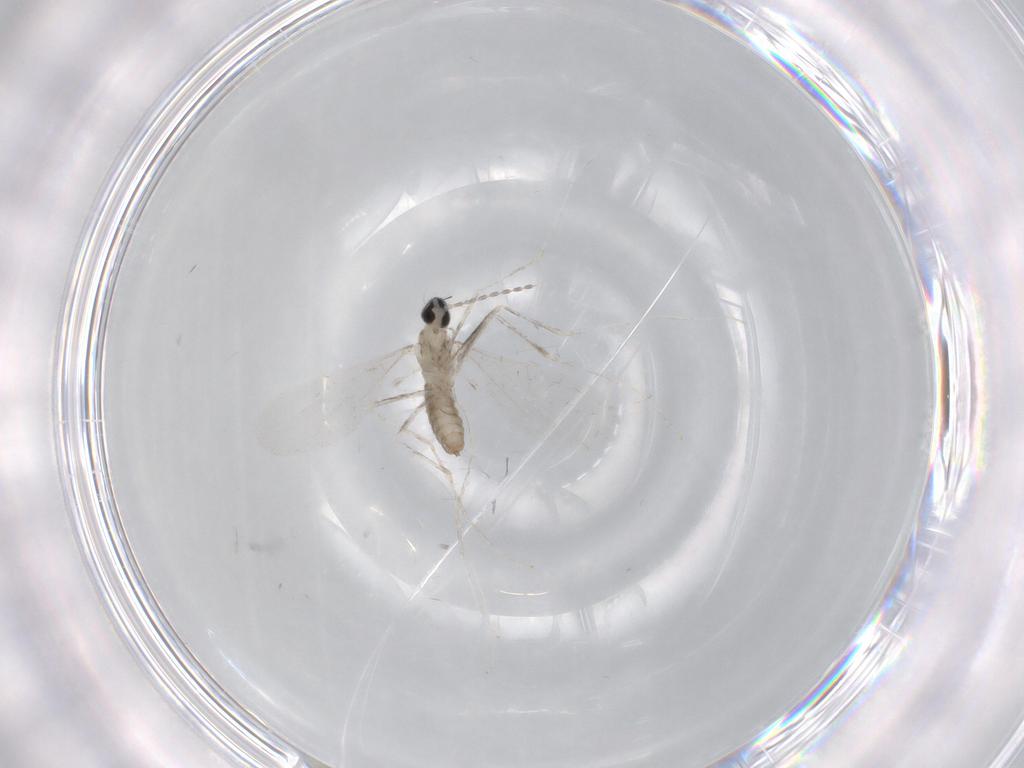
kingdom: Animalia
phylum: Arthropoda
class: Insecta
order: Diptera
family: Cecidomyiidae
